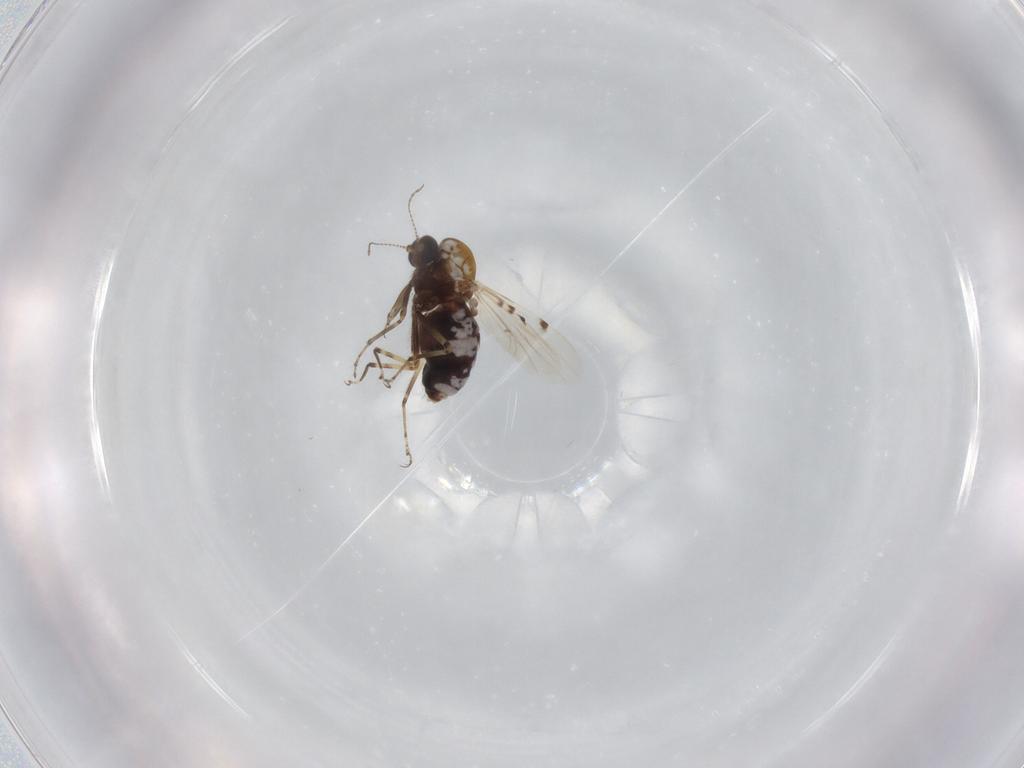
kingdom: Animalia
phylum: Arthropoda
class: Insecta
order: Diptera
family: Ceratopogonidae
